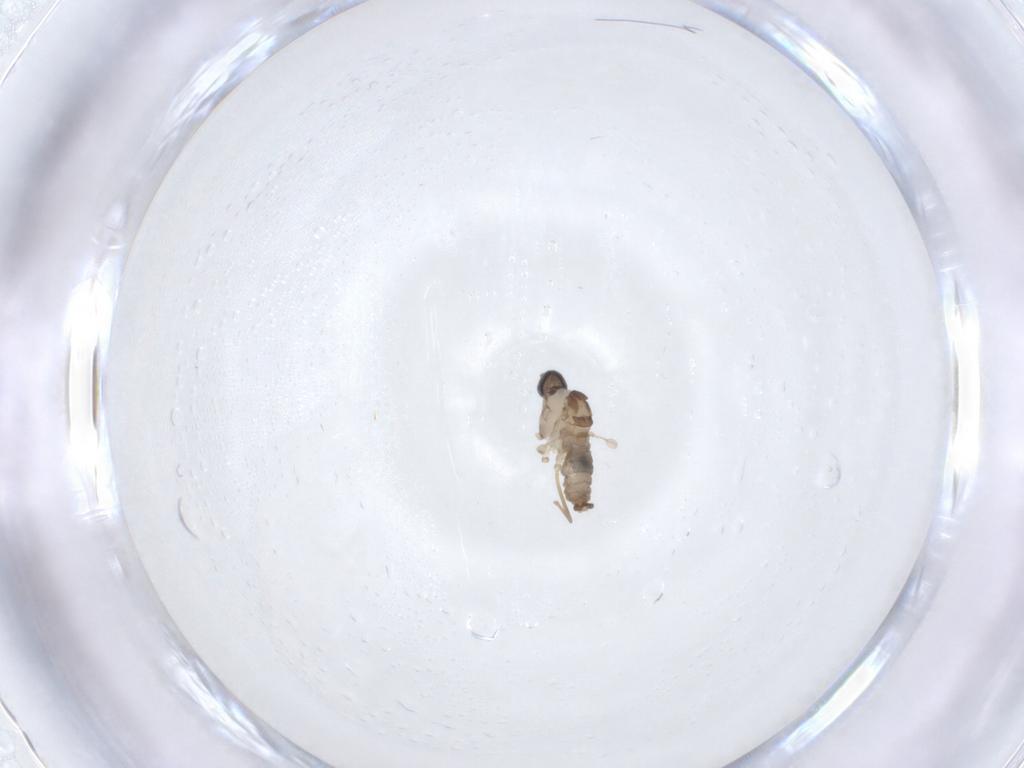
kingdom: Animalia
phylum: Arthropoda
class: Insecta
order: Diptera
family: Cecidomyiidae
